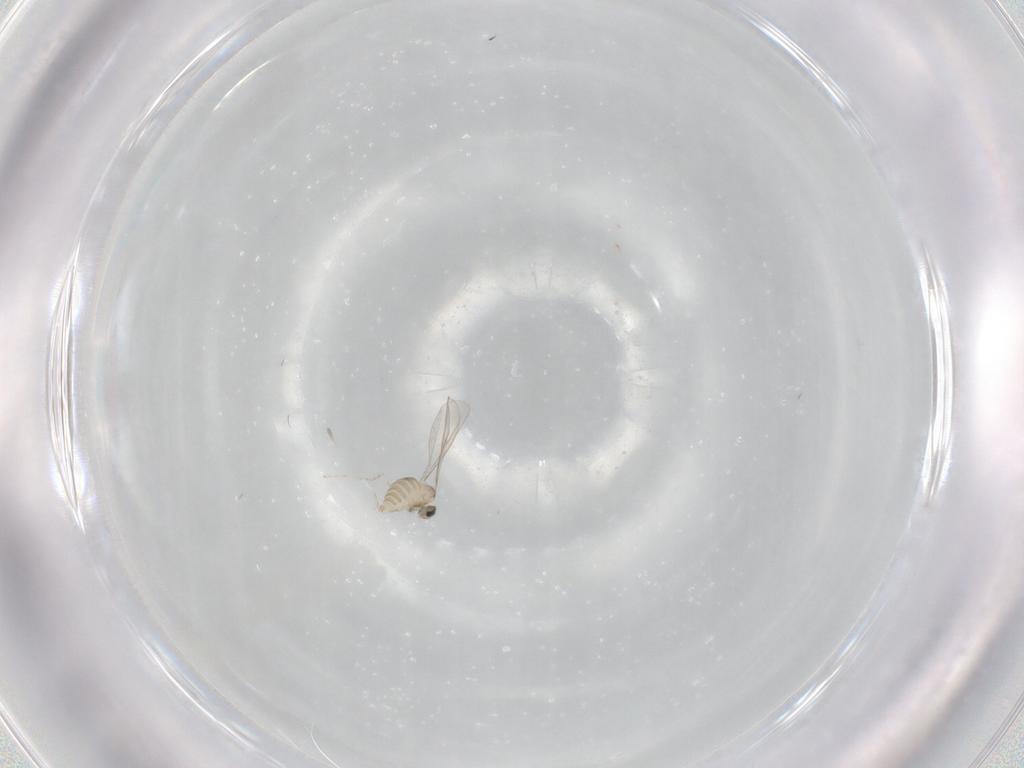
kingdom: Animalia
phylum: Arthropoda
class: Insecta
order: Diptera
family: Cecidomyiidae
